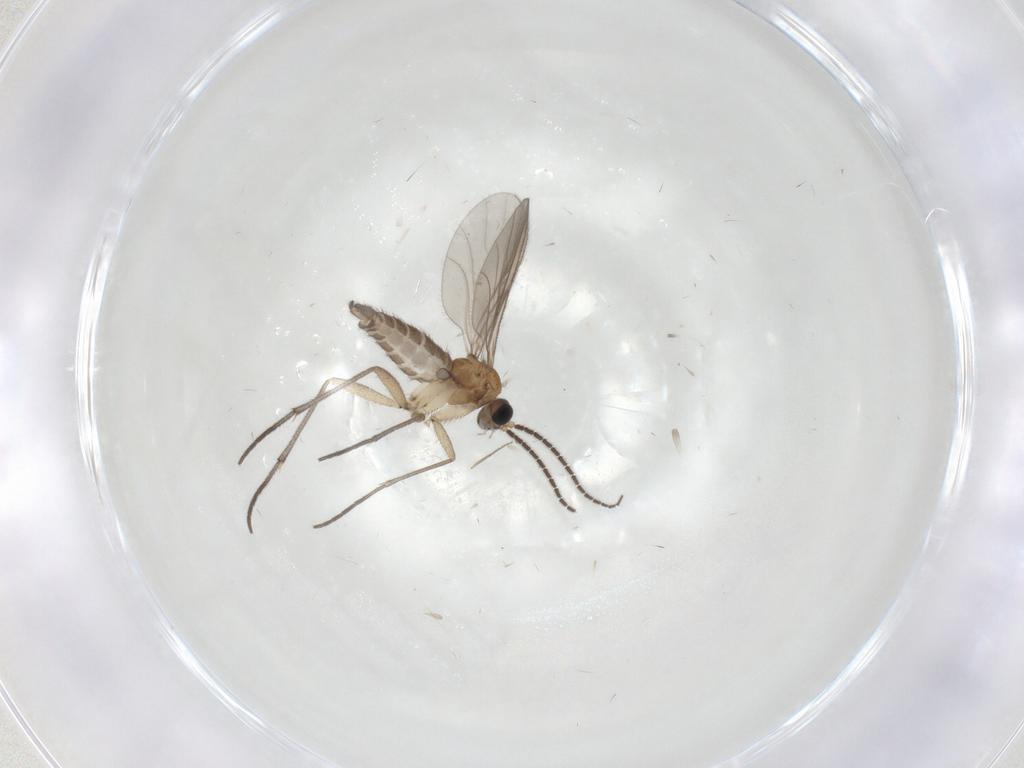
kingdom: Animalia
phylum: Arthropoda
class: Insecta
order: Diptera
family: Sciaridae
